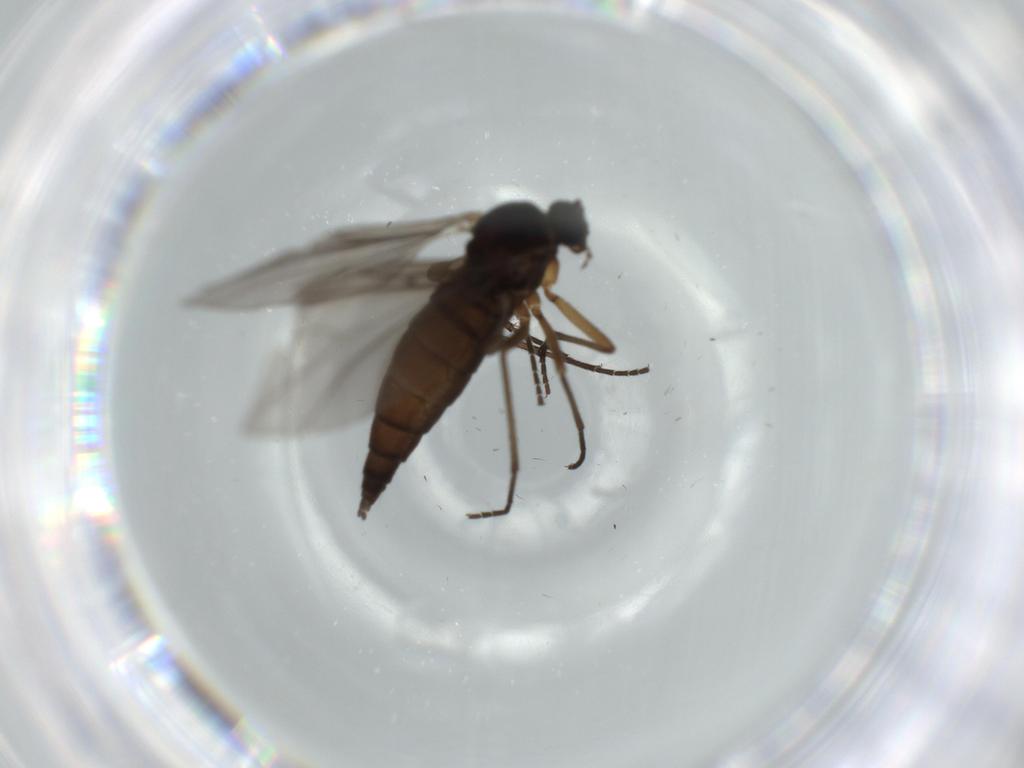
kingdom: Animalia
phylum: Arthropoda
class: Insecta
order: Diptera
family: Sciaridae
